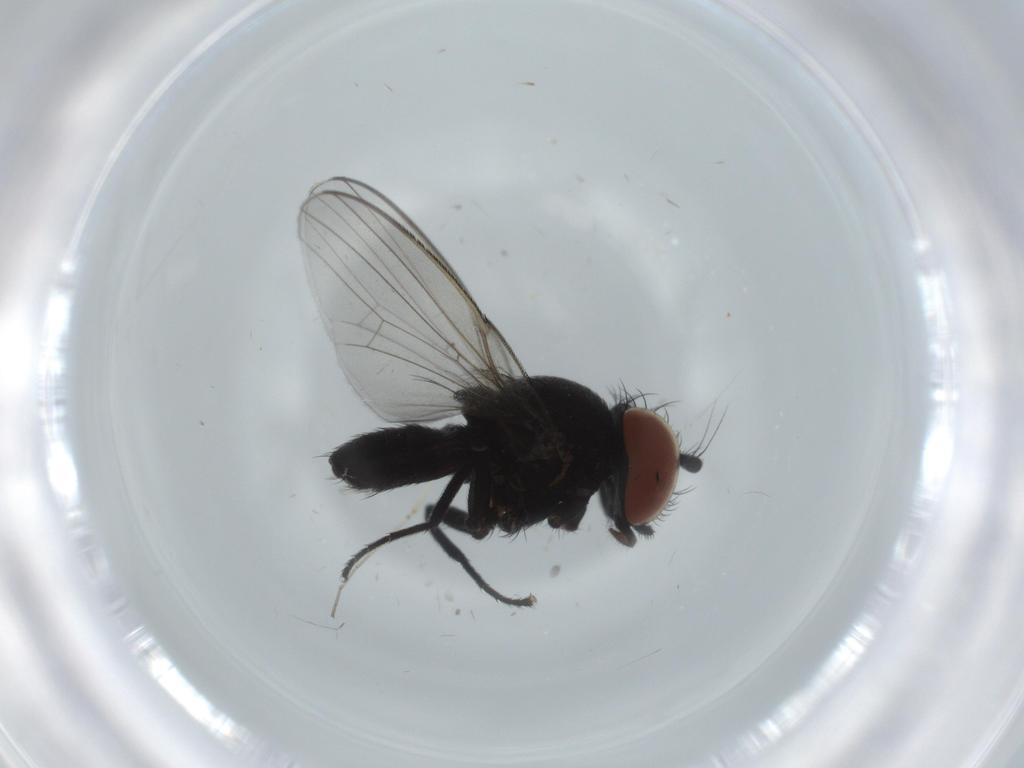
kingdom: Animalia
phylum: Arthropoda
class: Insecta
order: Diptera
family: Milichiidae
